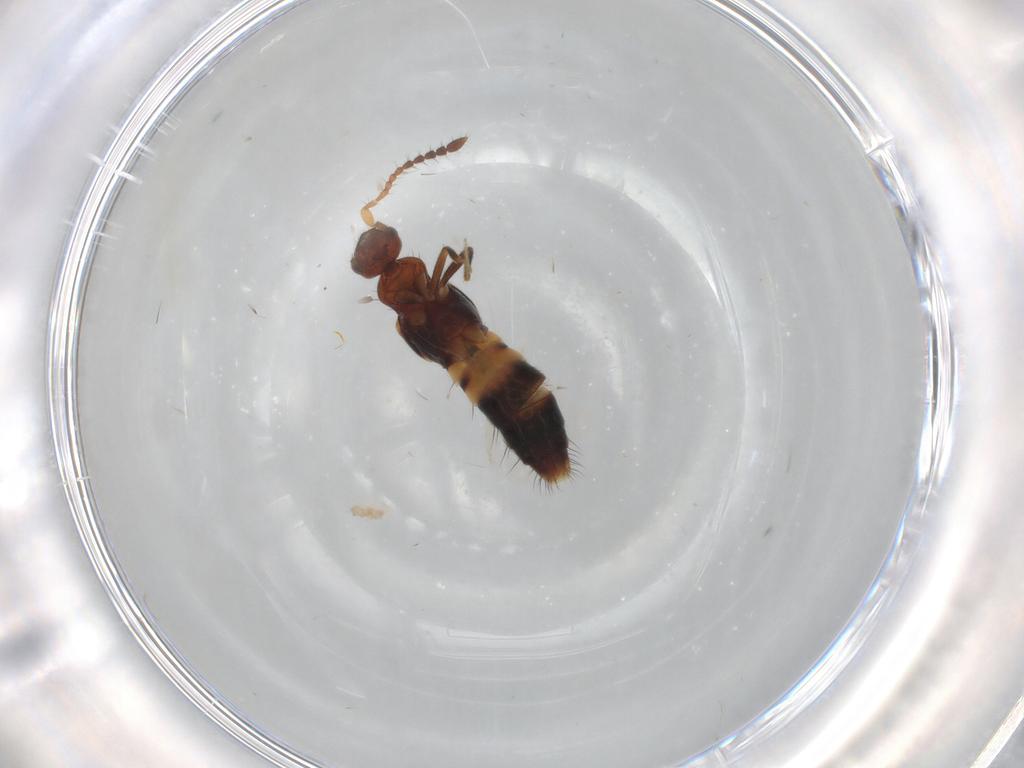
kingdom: Animalia
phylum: Arthropoda
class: Insecta
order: Coleoptera
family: Staphylinidae
